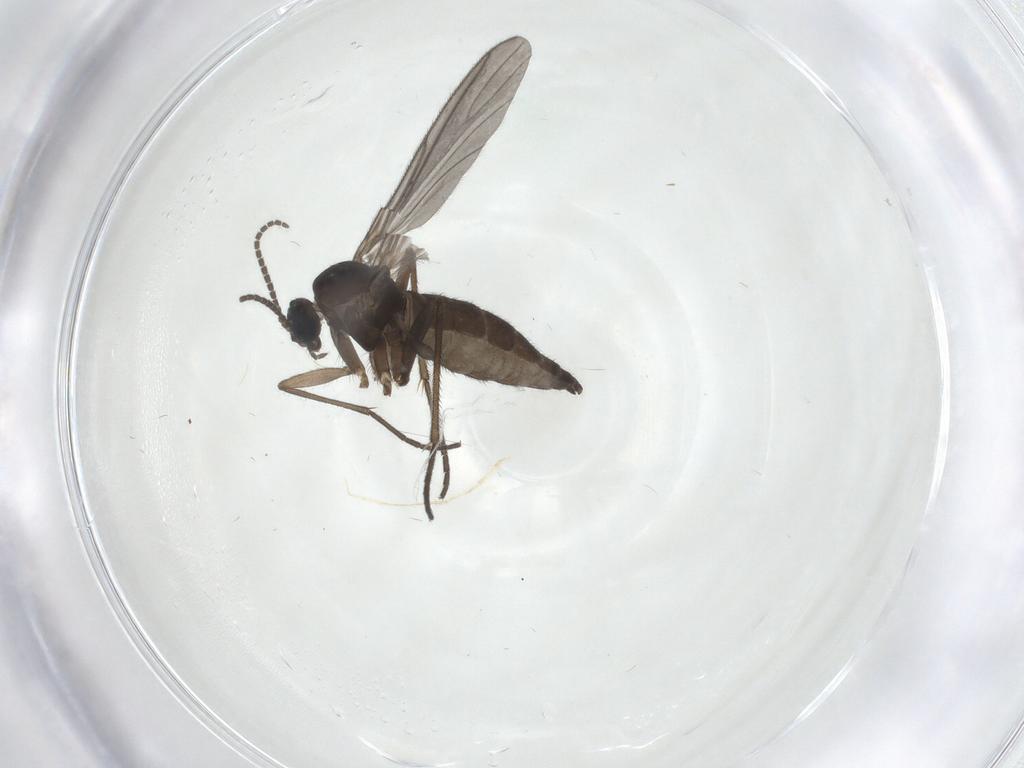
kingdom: Animalia
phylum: Arthropoda
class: Insecta
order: Diptera
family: Sciaridae
